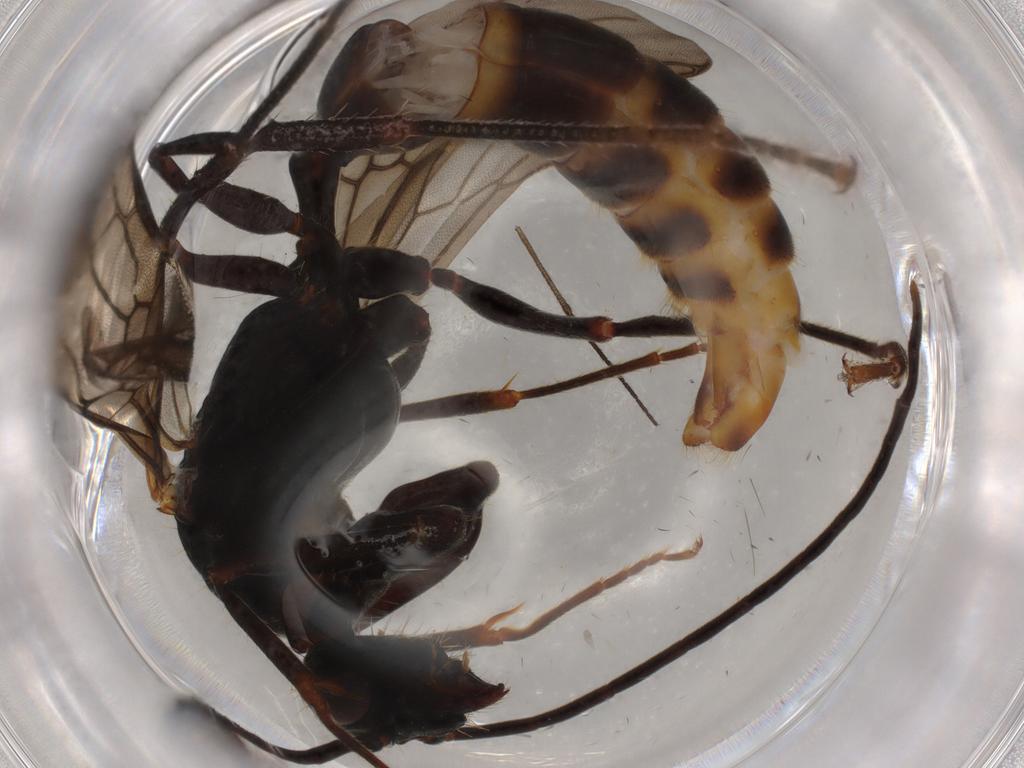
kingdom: Animalia
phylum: Arthropoda
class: Insecta
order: Hymenoptera
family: Formicidae
